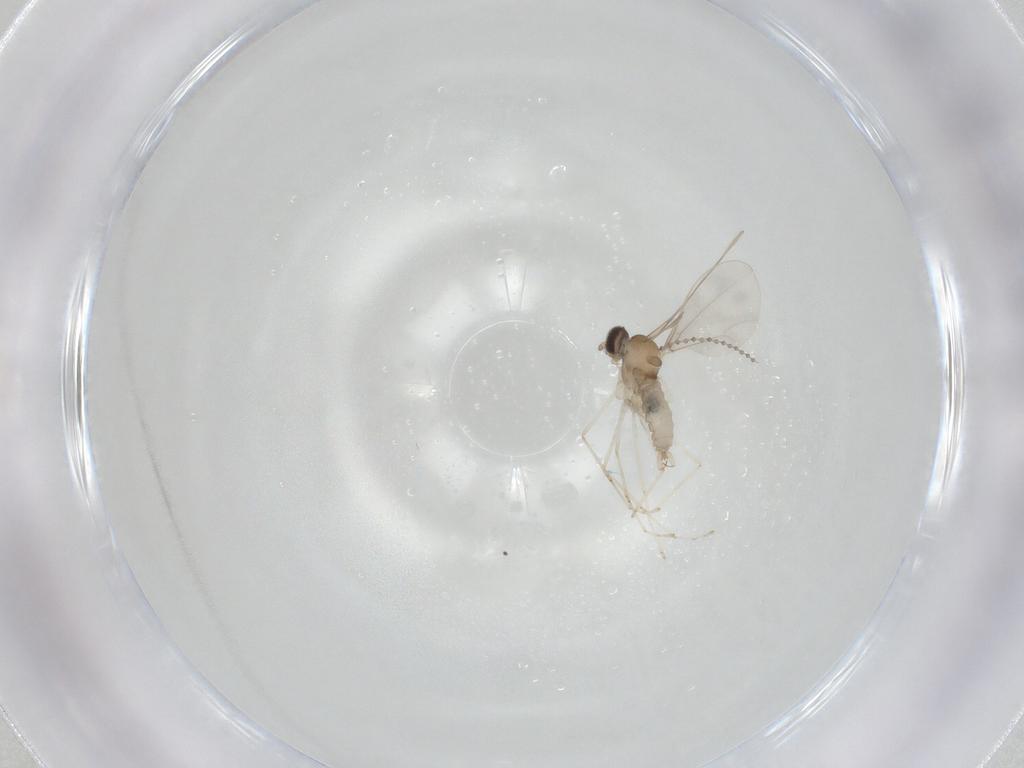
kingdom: Animalia
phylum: Arthropoda
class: Insecta
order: Diptera
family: Cecidomyiidae
